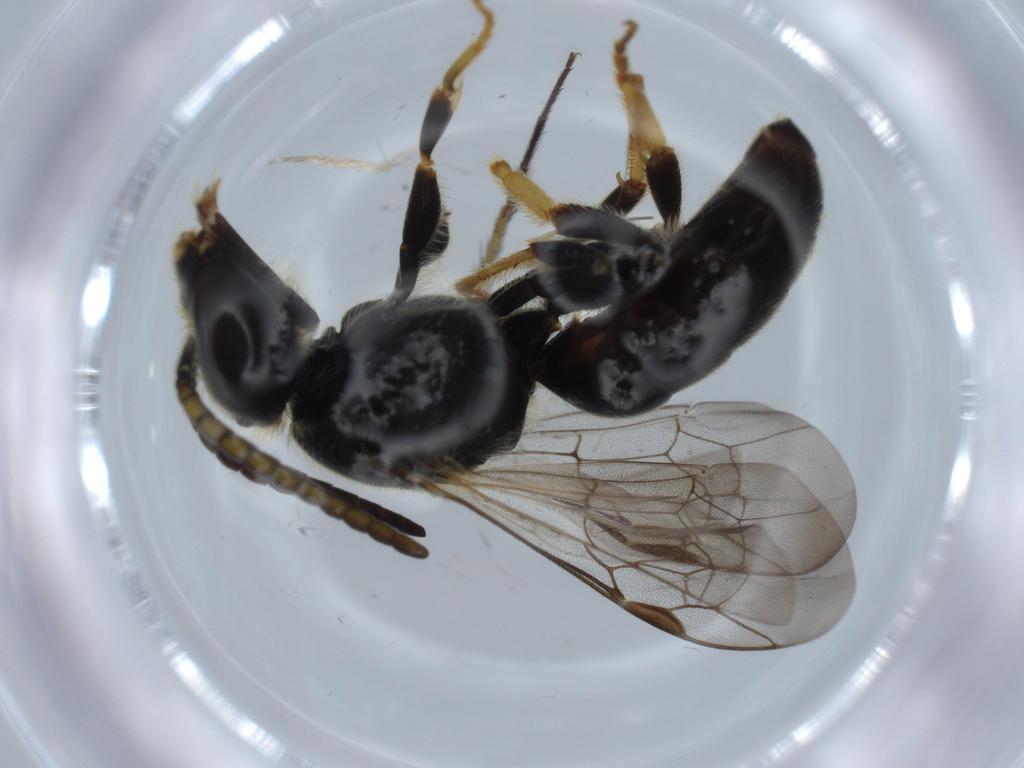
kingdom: Animalia
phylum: Arthropoda
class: Insecta
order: Hymenoptera
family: Halictidae
